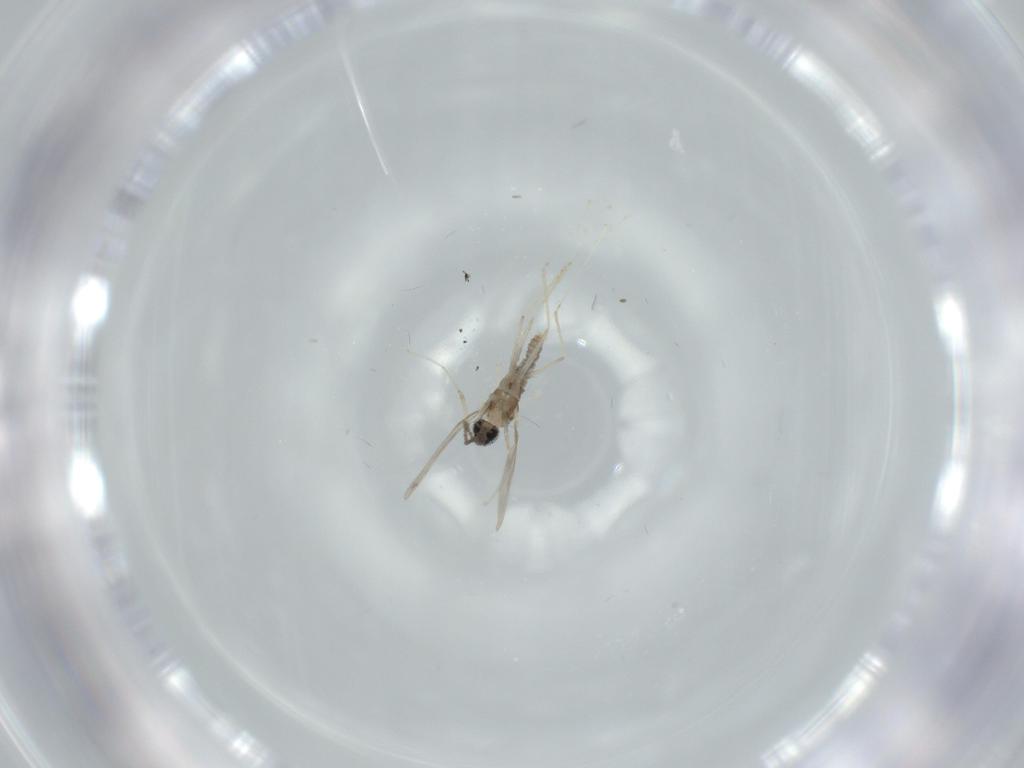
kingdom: Animalia
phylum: Arthropoda
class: Insecta
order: Diptera
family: Cecidomyiidae
